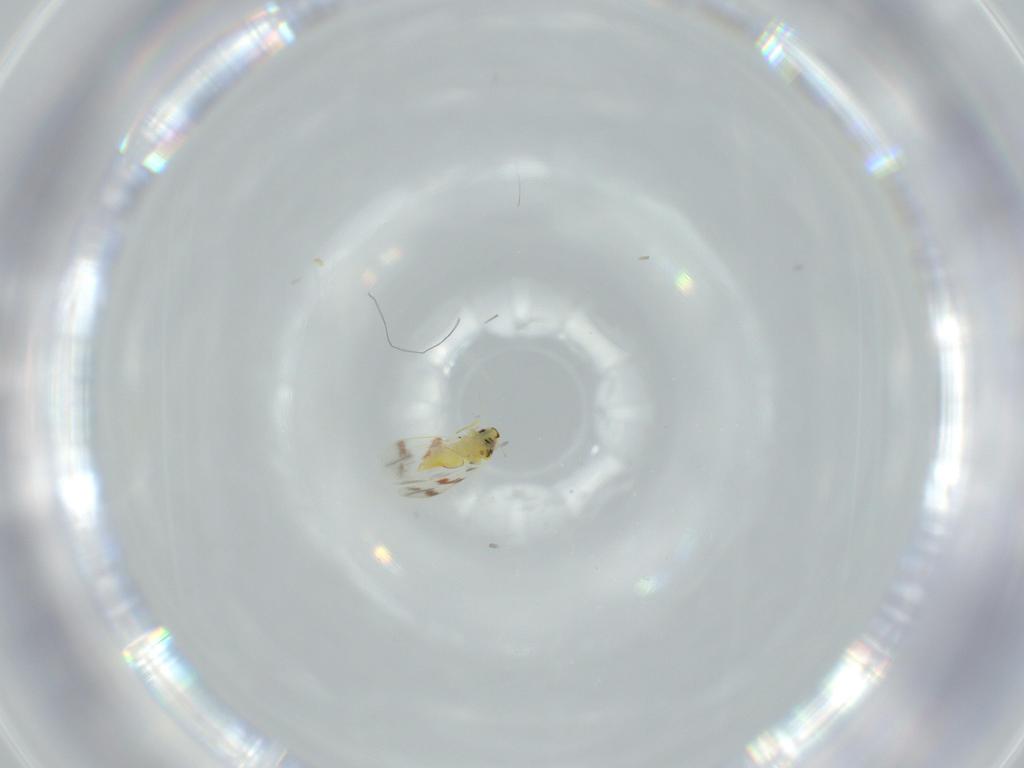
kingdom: Animalia
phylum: Arthropoda
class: Insecta
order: Hemiptera
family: Aleyrodidae
